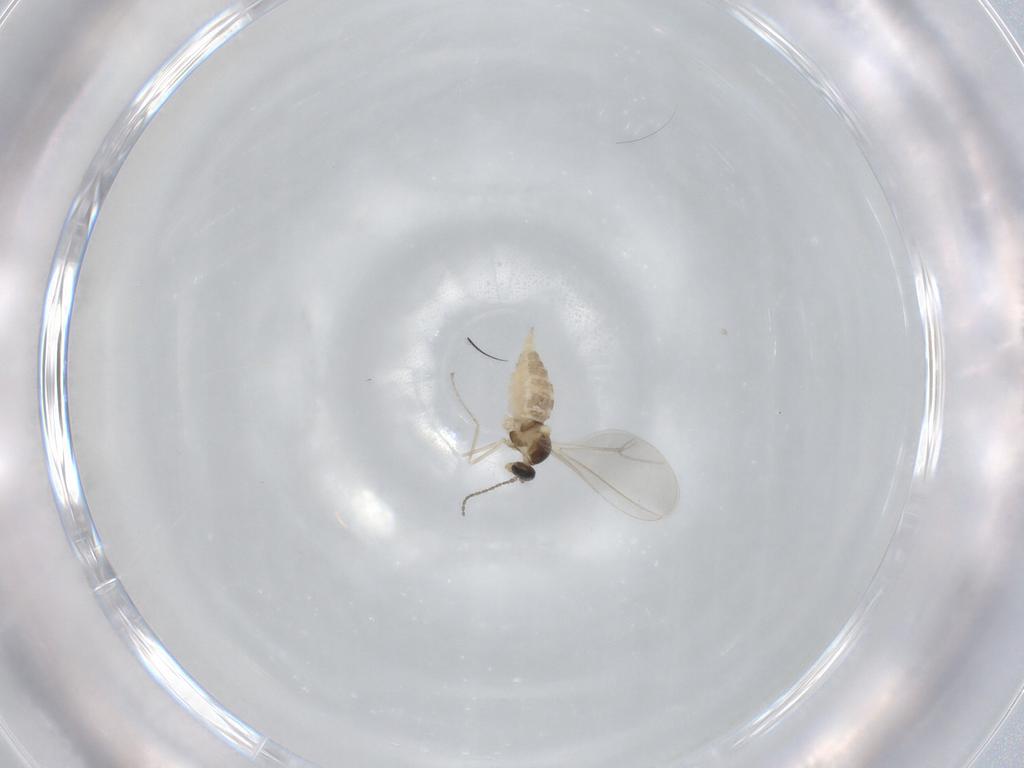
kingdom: Animalia
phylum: Arthropoda
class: Insecta
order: Diptera
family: Cecidomyiidae
